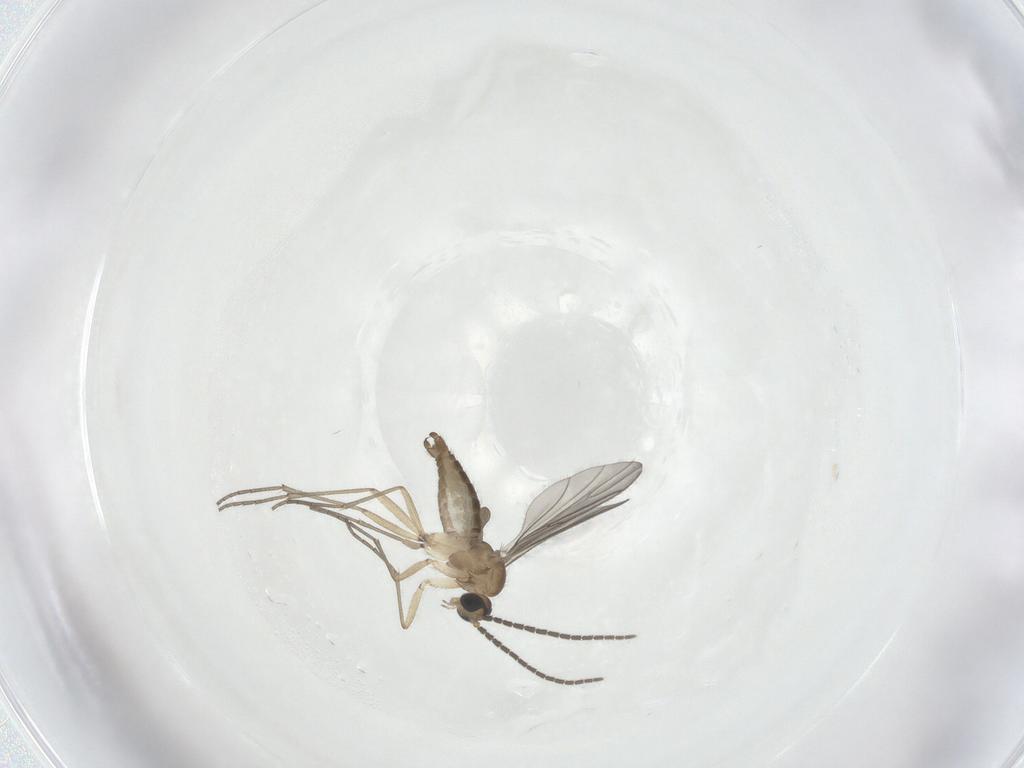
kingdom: Animalia
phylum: Arthropoda
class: Insecta
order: Diptera
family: Sciaridae
